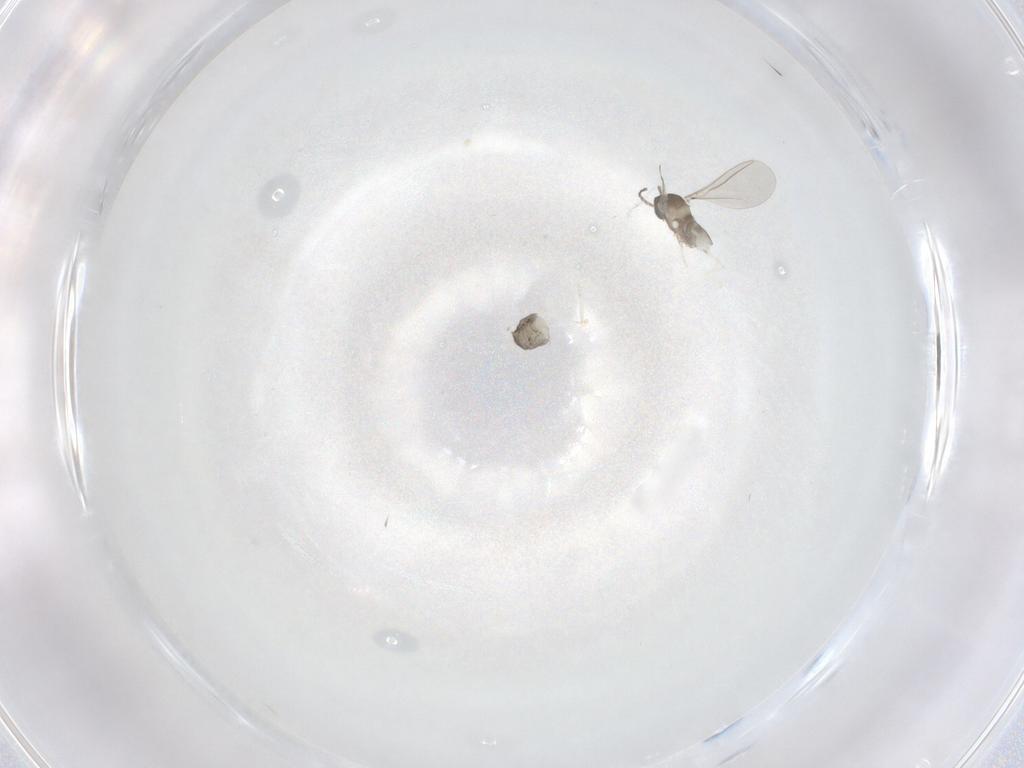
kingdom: Animalia
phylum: Arthropoda
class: Insecta
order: Diptera
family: Cecidomyiidae
